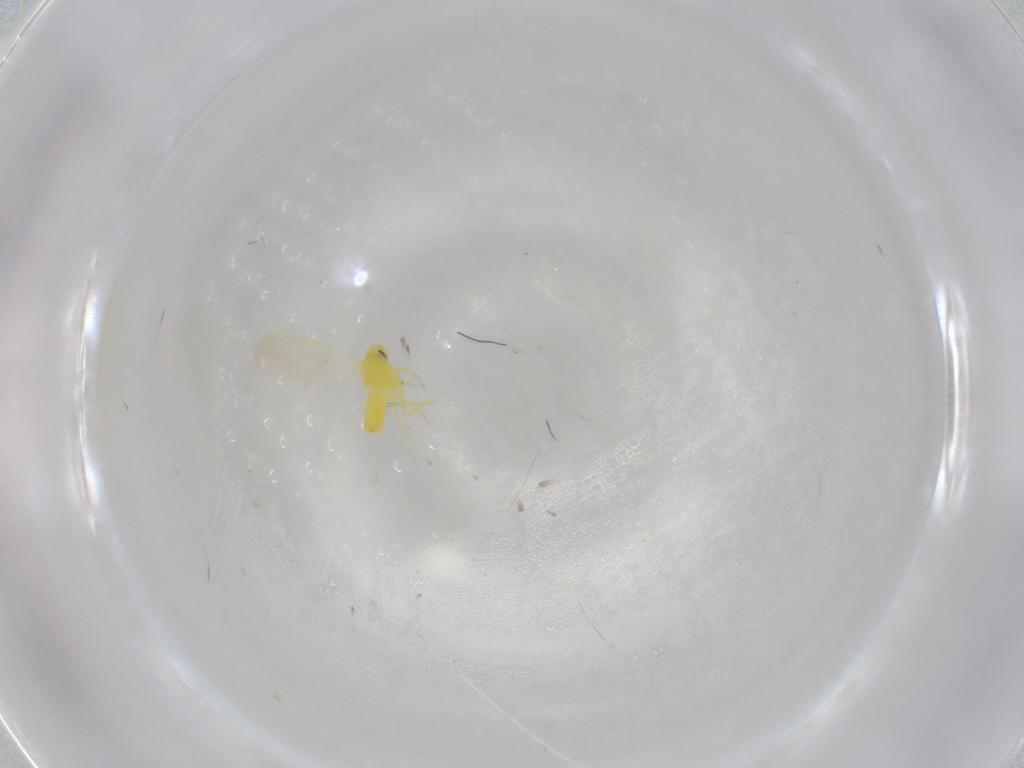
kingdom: Animalia
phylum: Arthropoda
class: Insecta
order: Hemiptera
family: Aleyrodidae
